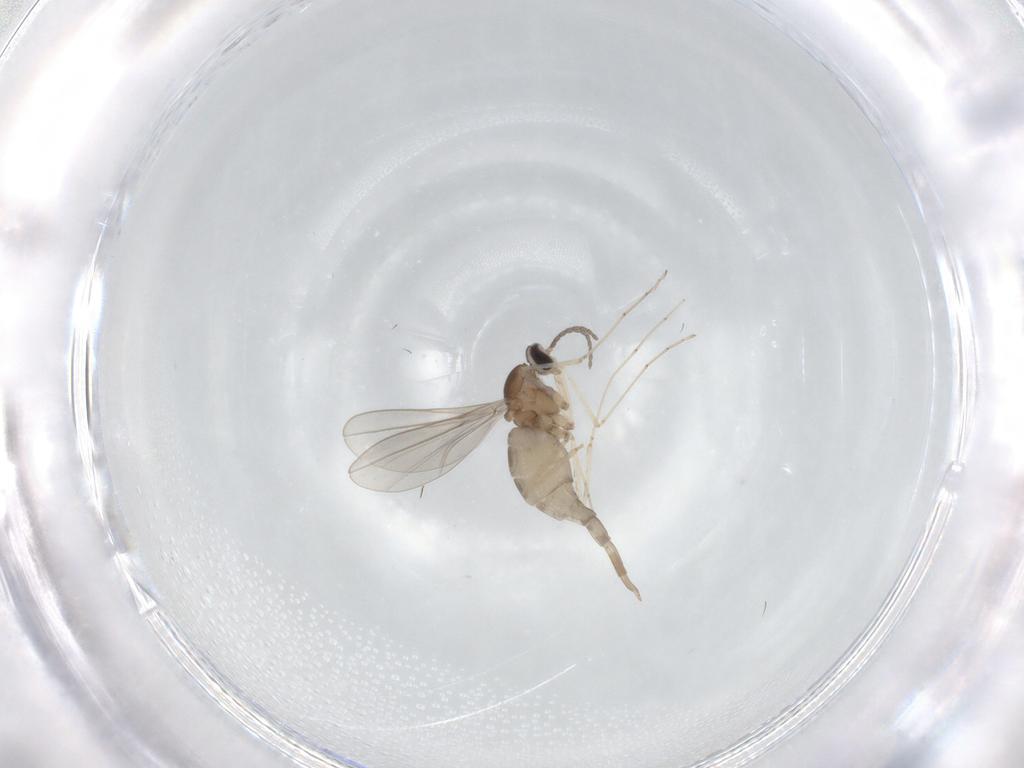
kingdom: Animalia
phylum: Arthropoda
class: Insecta
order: Diptera
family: Cecidomyiidae
